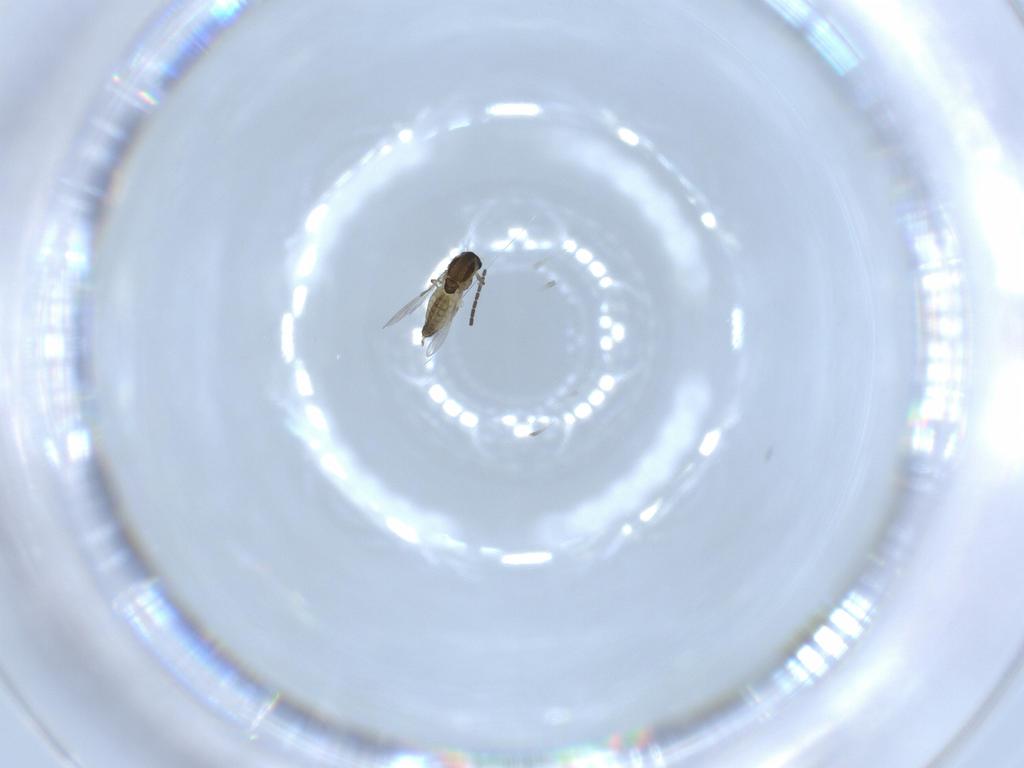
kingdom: Animalia
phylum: Arthropoda
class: Insecta
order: Diptera
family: Chironomidae
